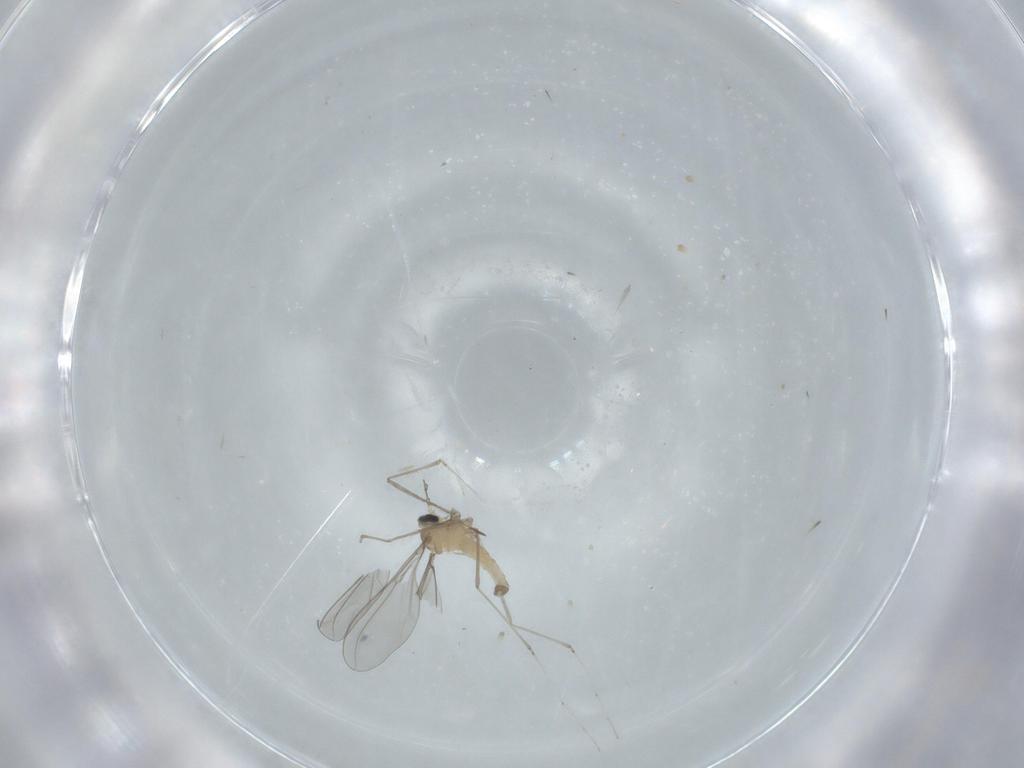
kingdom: Animalia
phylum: Arthropoda
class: Insecta
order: Diptera
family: Cecidomyiidae
